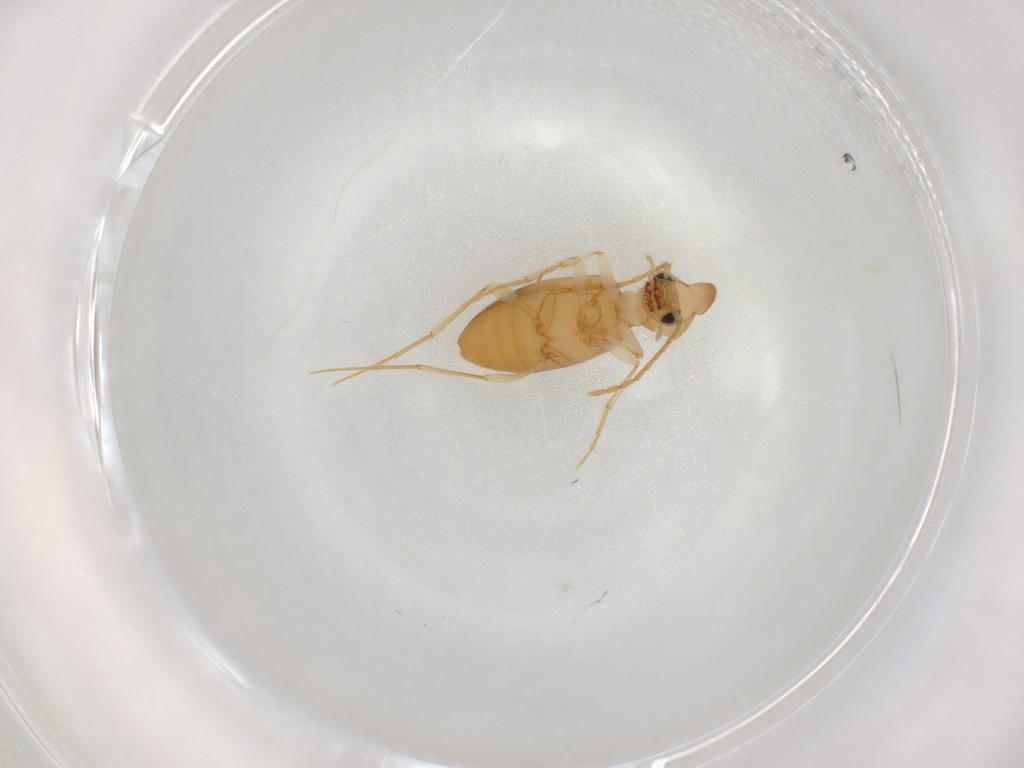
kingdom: Animalia
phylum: Arthropoda
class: Insecta
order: Coleoptera
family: Anthicidae
